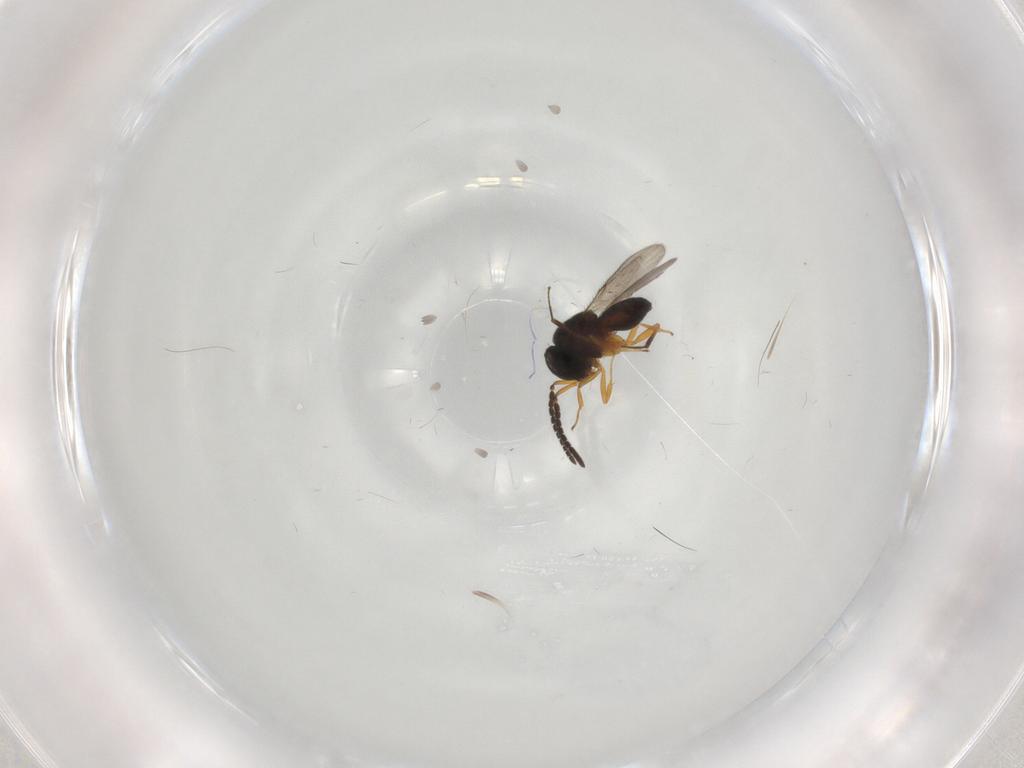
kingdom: Animalia
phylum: Arthropoda
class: Insecta
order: Hymenoptera
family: Scelionidae
